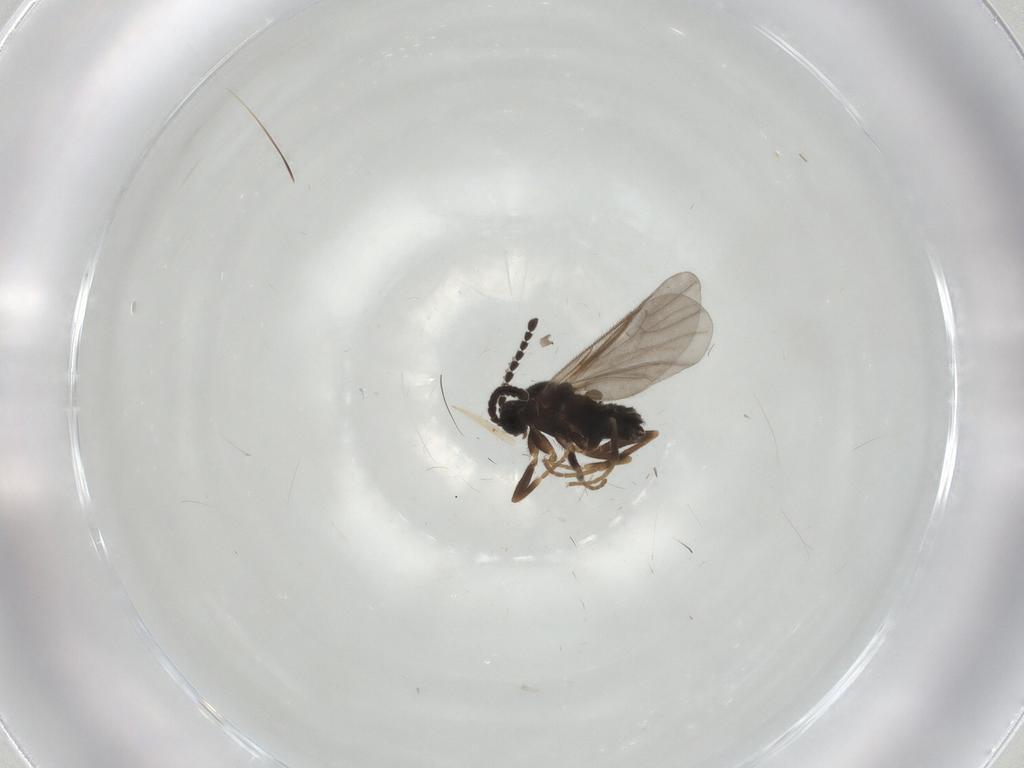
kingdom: Animalia
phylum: Arthropoda
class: Insecta
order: Diptera
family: Scatopsidae
